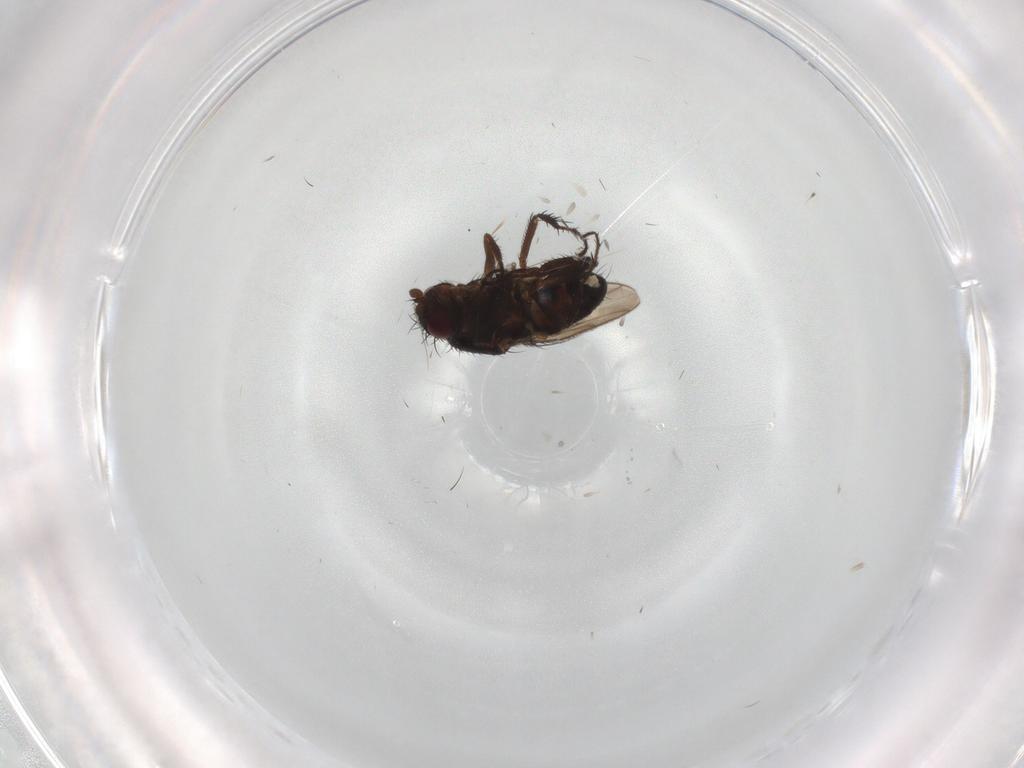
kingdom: Animalia
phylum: Arthropoda
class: Insecta
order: Diptera
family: Sphaeroceridae
